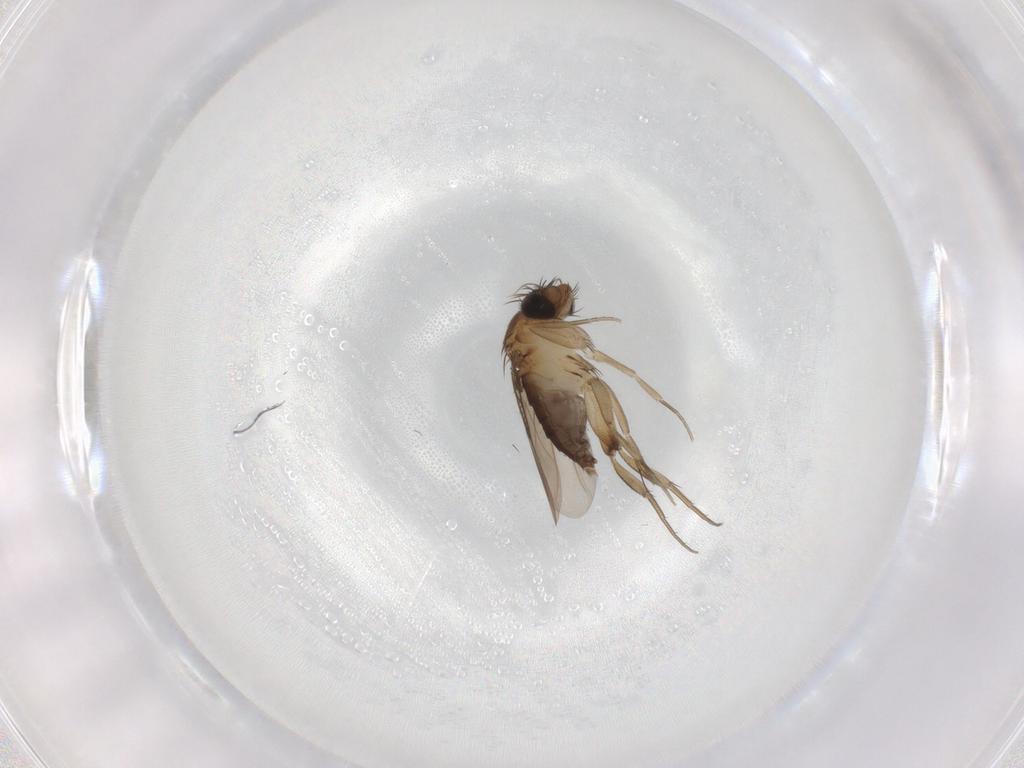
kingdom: Animalia
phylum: Arthropoda
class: Insecta
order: Diptera
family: Phoridae
